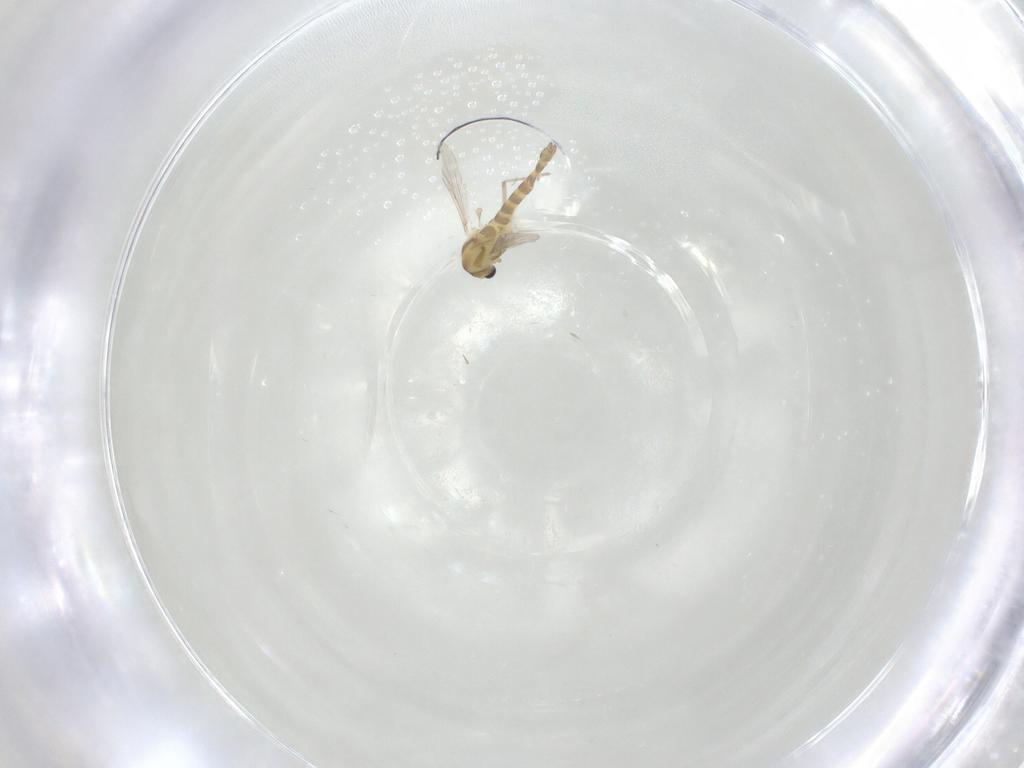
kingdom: Animalia
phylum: Arthropoda
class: Insecta
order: Diptera
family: Chironomidae
